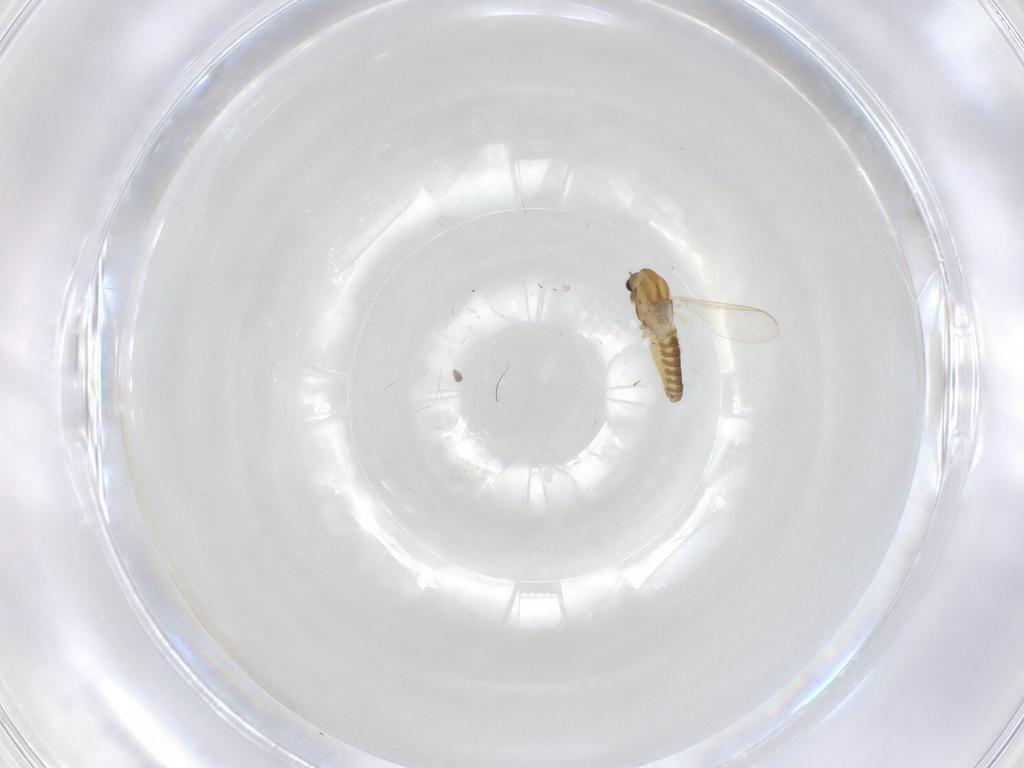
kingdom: Animalia
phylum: Arthropoda
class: Insecta
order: Diptera
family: Chironomidae
